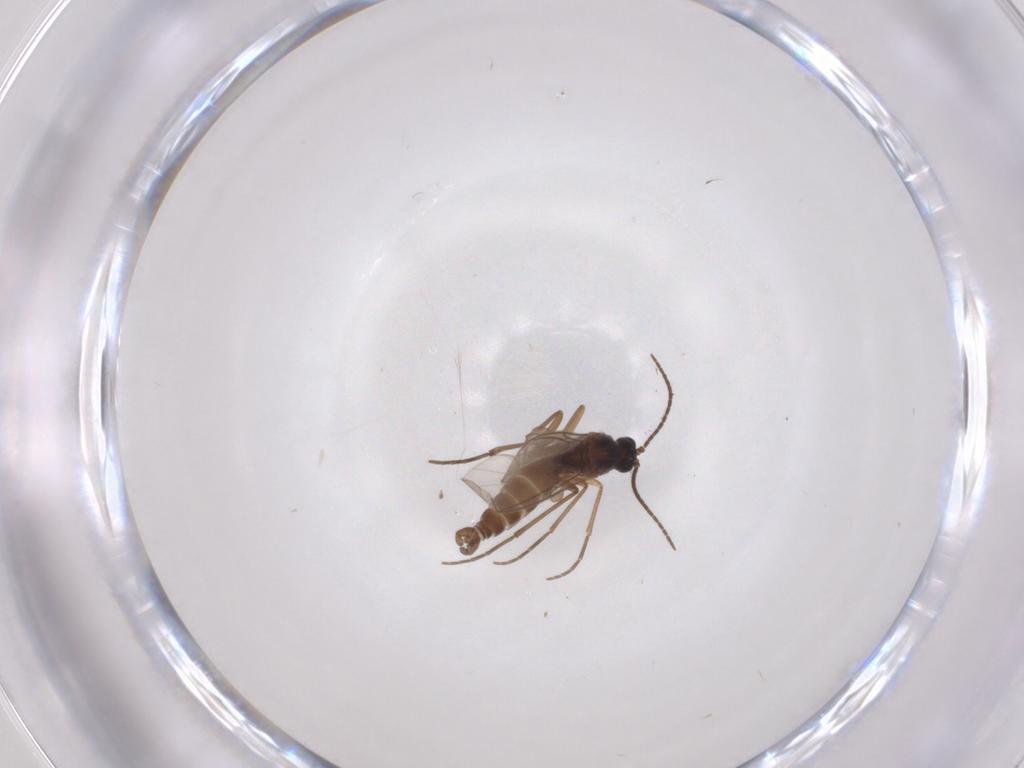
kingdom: Animalia
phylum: Arthropoda
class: Insecta
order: Diptera
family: Sciaridae
